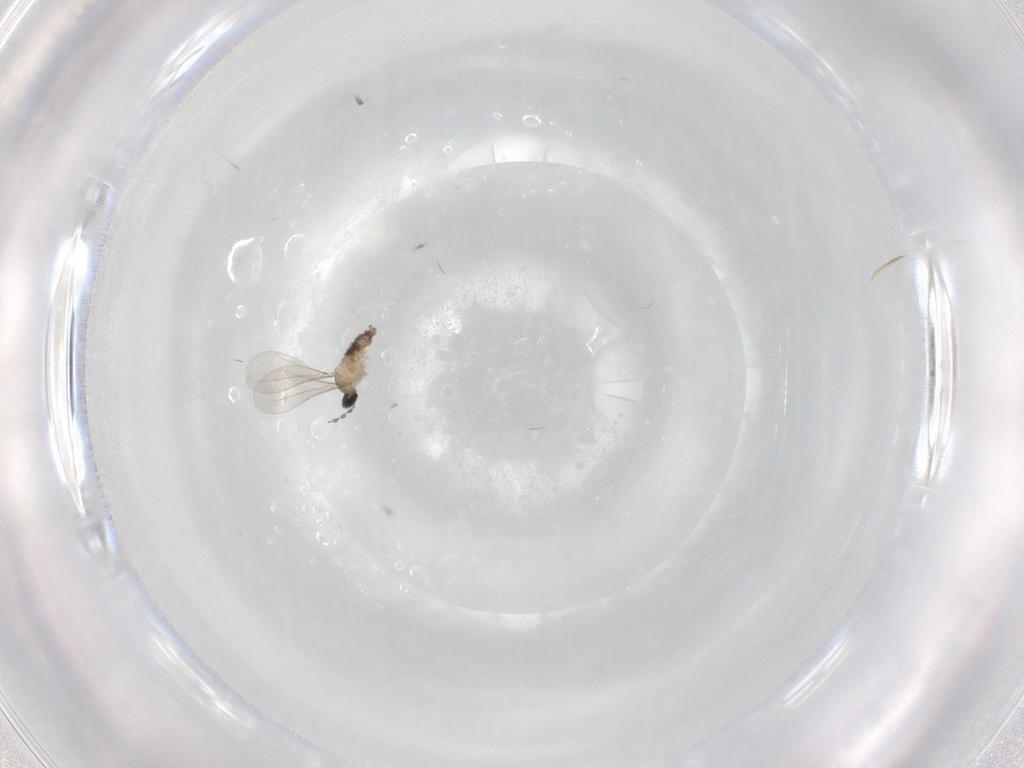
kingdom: Animalia
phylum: Arthropoda
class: Insecta
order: Diptera
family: Cecidomyiidae
